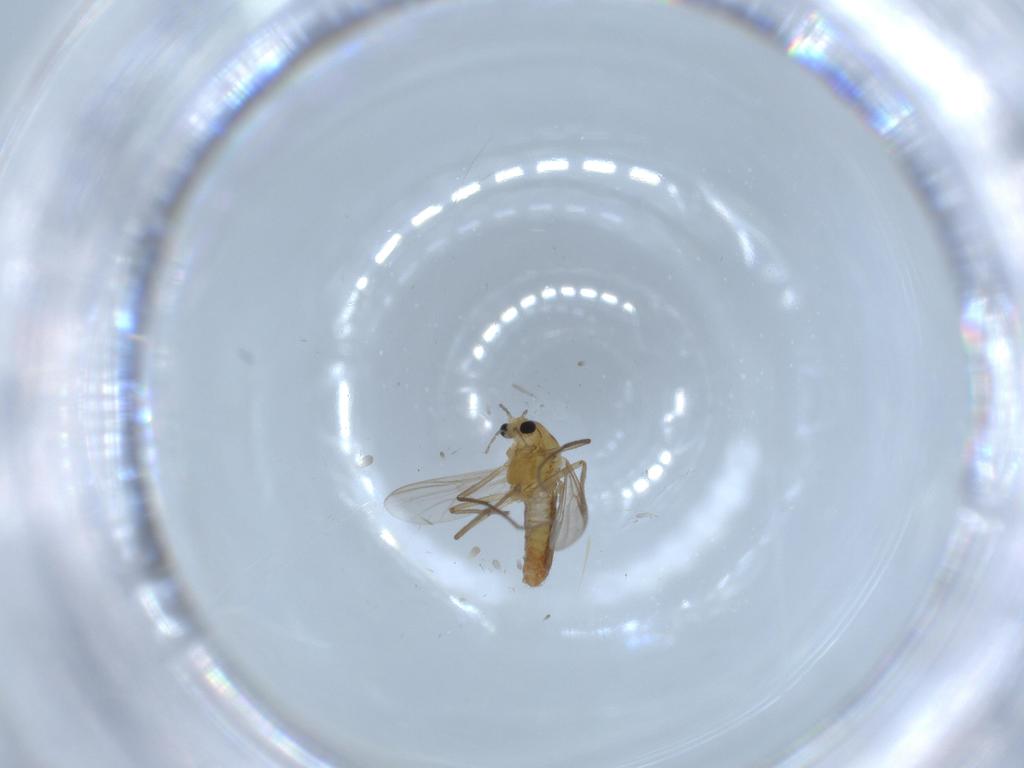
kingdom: Animalia
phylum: Arthropoda
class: Insecta
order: Diptera
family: Chironomidae
